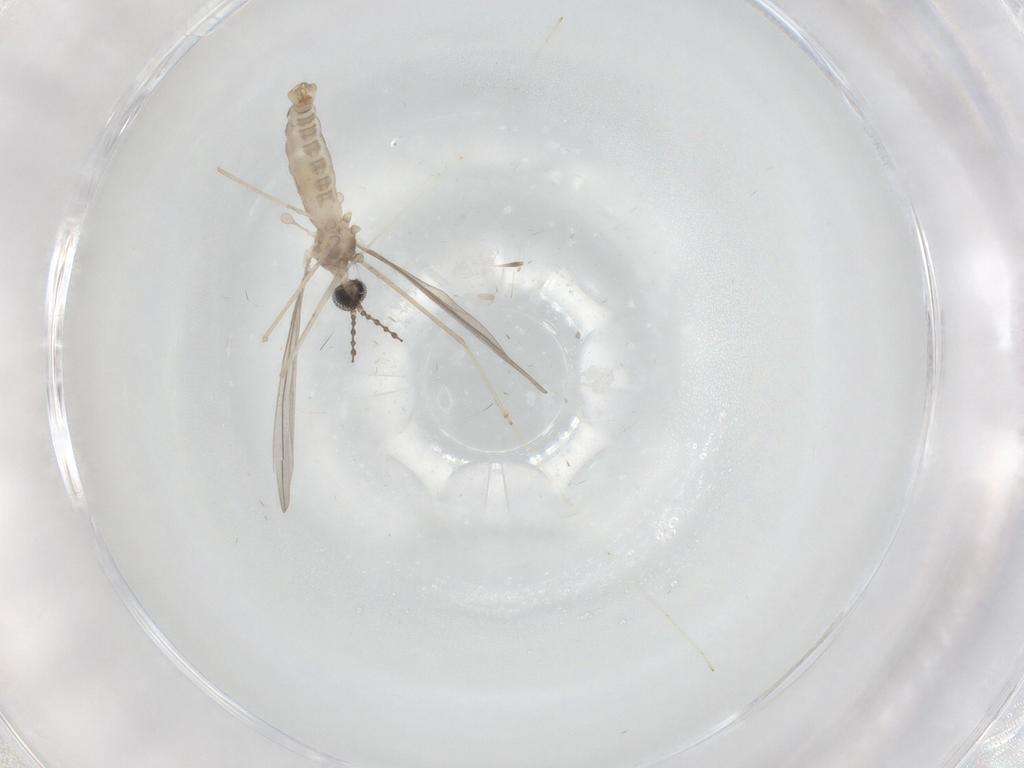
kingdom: Animalia
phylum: Arthropoda
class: Insecta
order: Diptera
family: Cecidomyiidae
